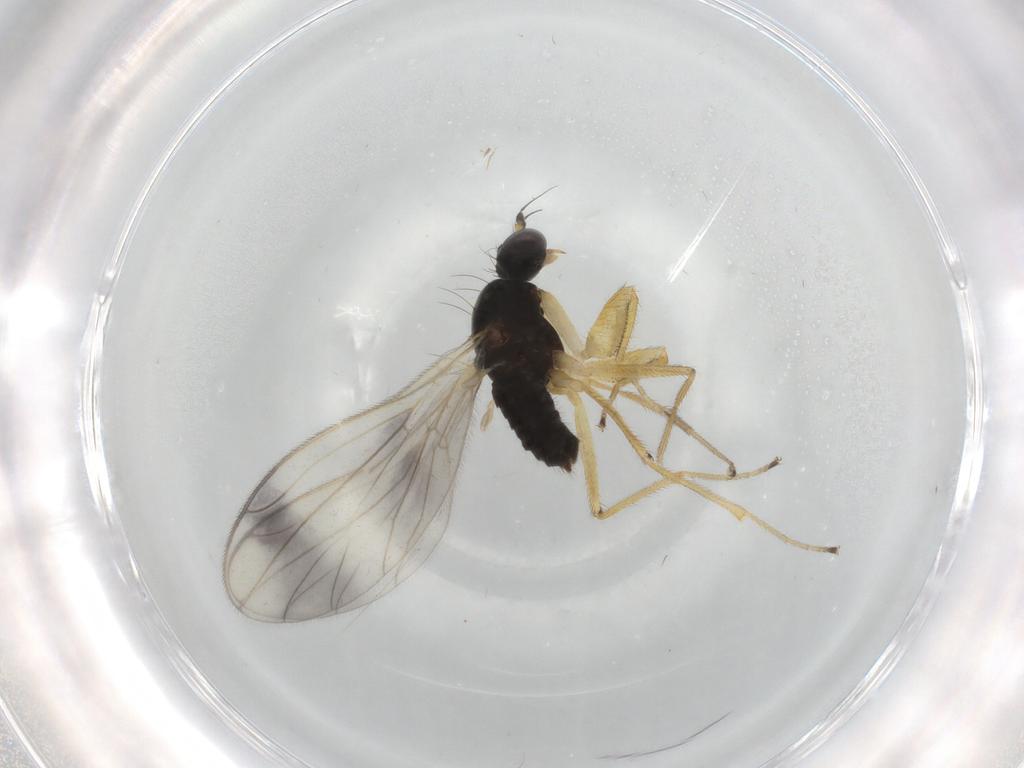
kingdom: Animalia
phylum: Arthropoda
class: Insecta
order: Diptera
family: Chironomidae
